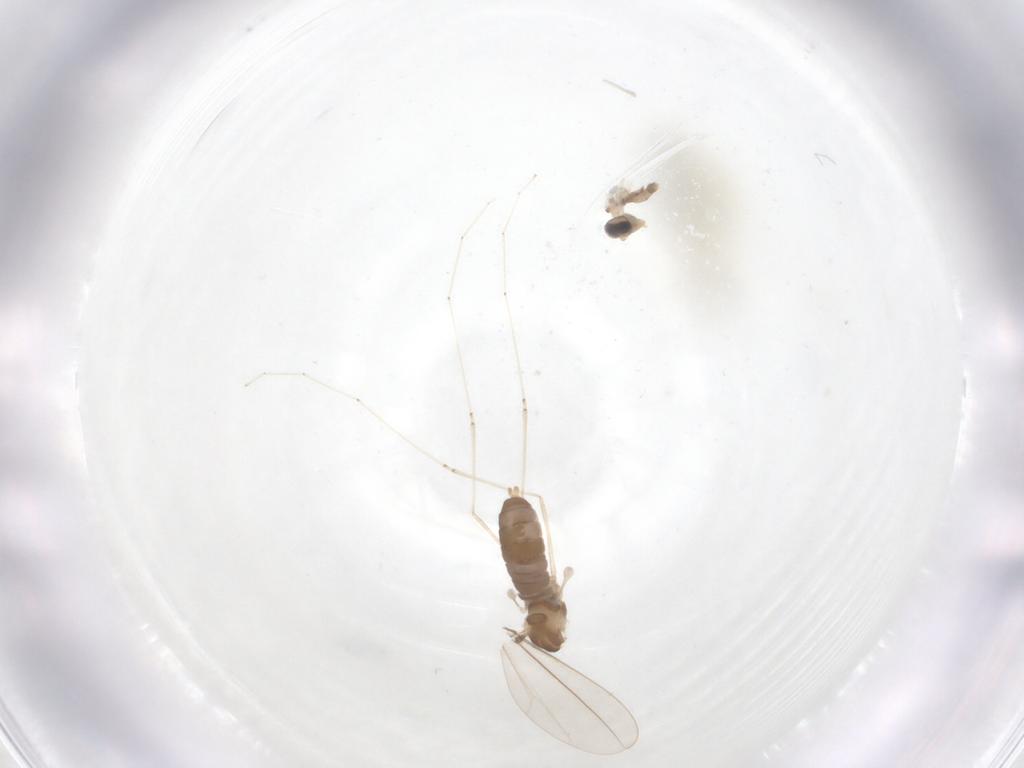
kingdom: Animalia
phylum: Arthropoda
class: Insecta
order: Diptera
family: Cecidomyiidae
